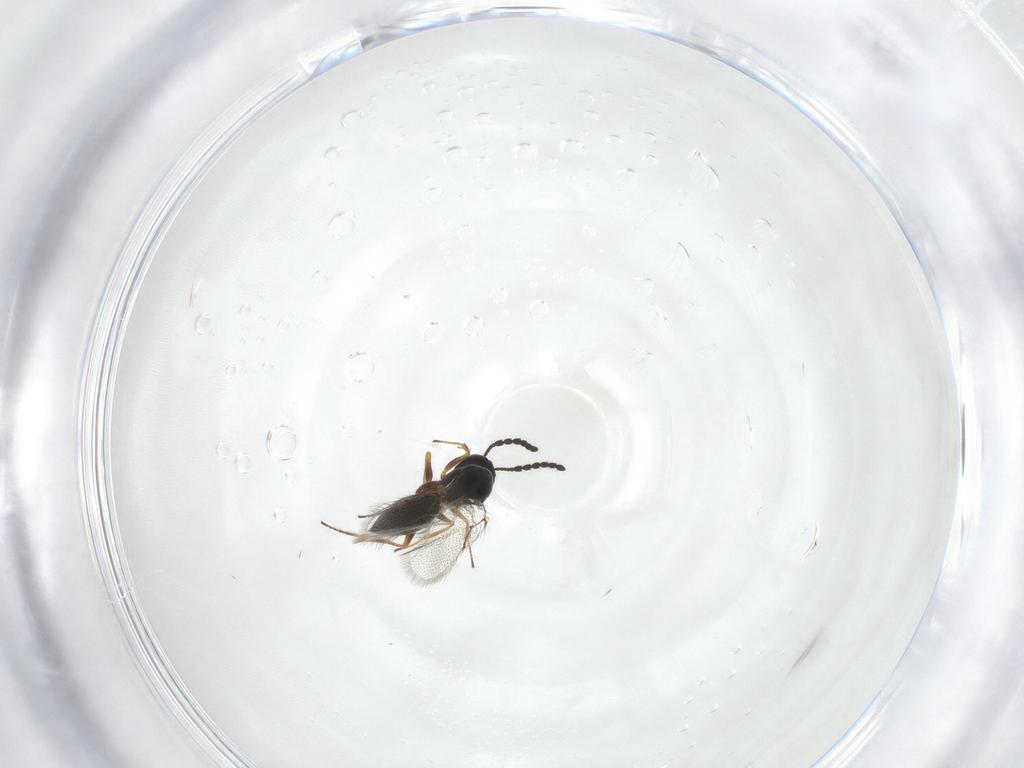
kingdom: Animalia
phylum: Arthropoda
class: Insecta
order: Hymenoptera
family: Figitidae
